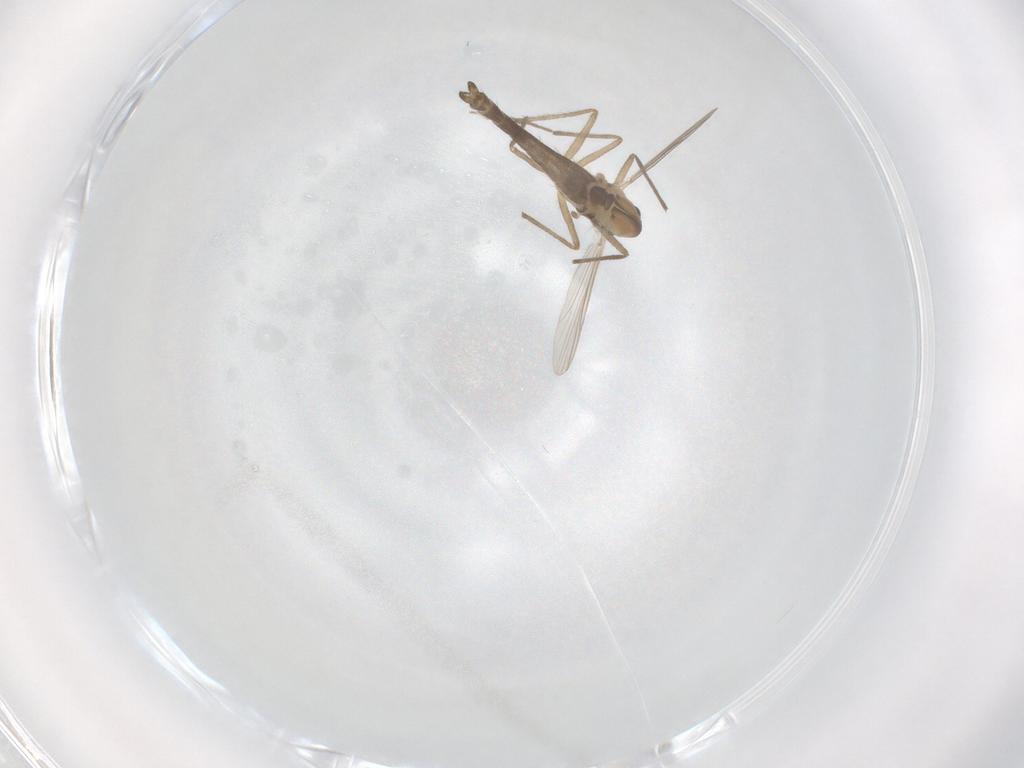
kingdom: Animalia
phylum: Arthropoda
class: Insecta
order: Diptera
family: Chironomidae
